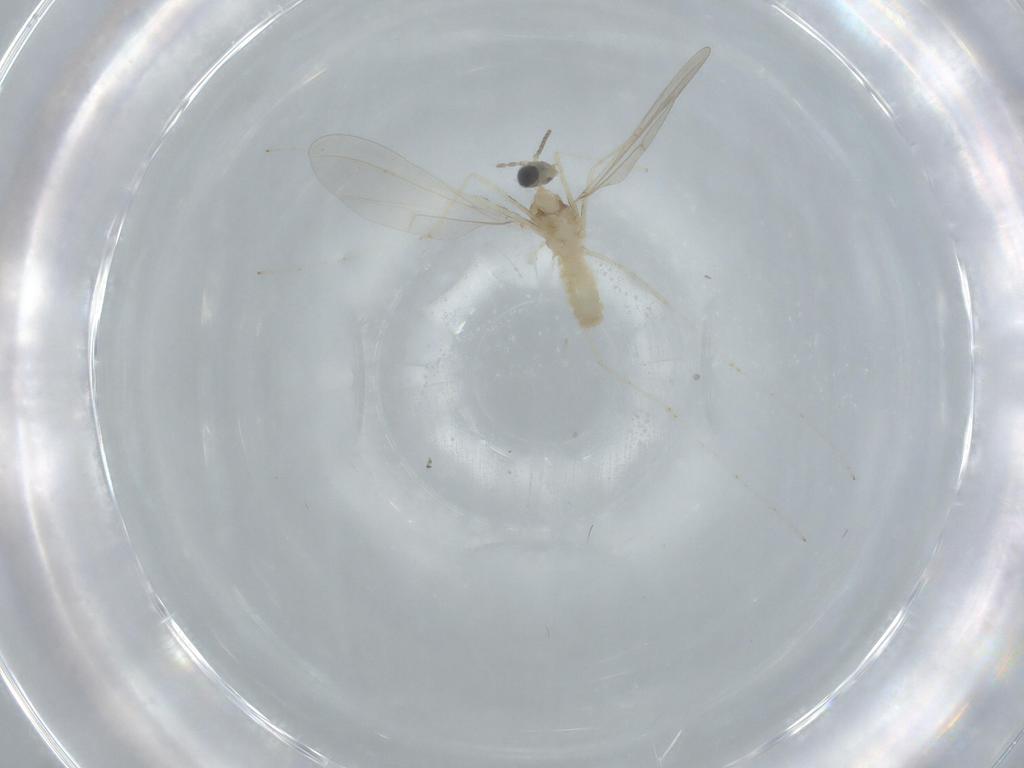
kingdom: Animalia
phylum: Arthropoda
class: Insecta
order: Diptera
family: Cecidomyiidae
